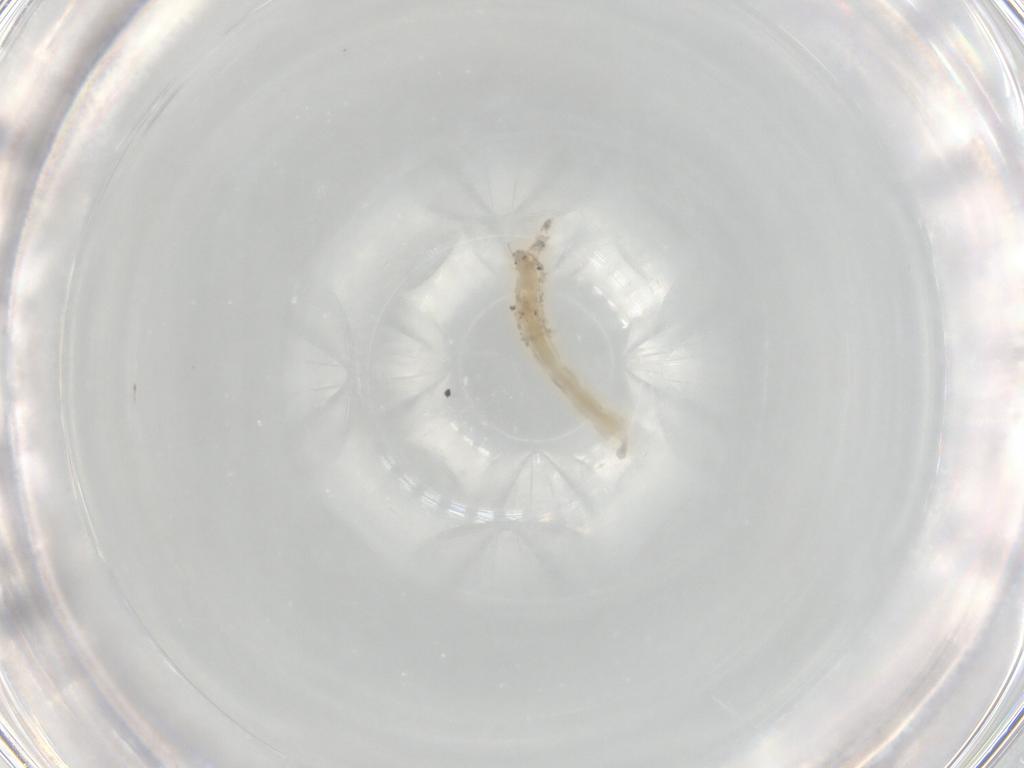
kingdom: Animalia
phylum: Arthropoda
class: Insecta
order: Diptera
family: Chironomidae
